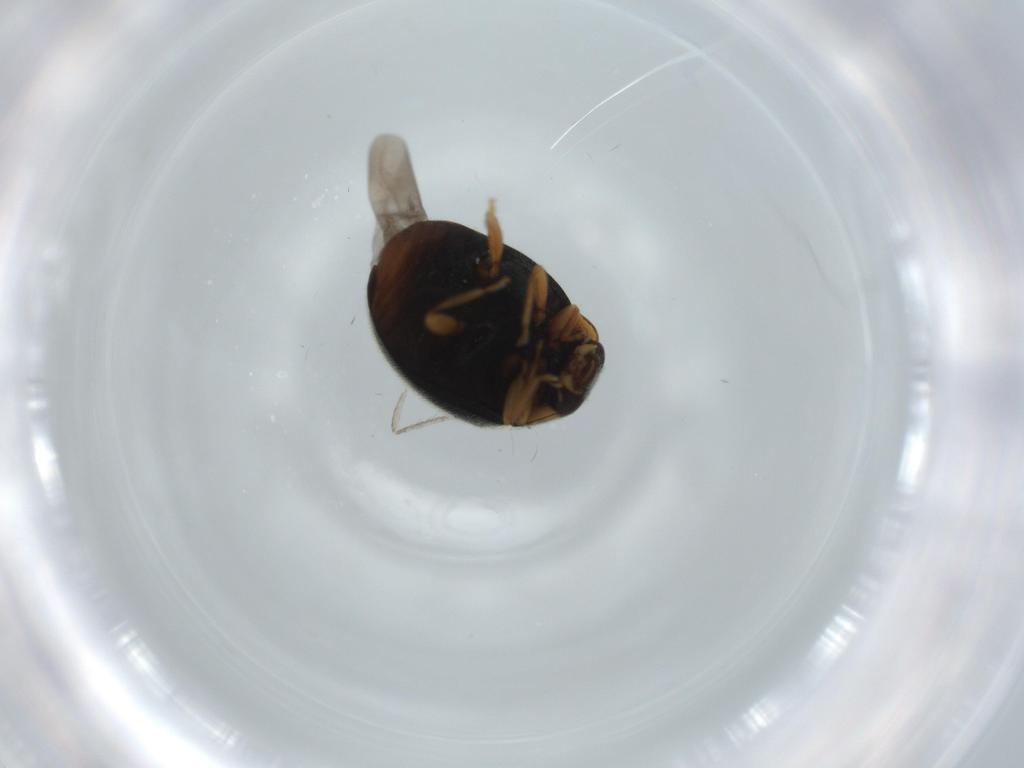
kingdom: Animalia
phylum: Arthropoda
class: Insecta
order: Coleoptera
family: Coccinellidae
